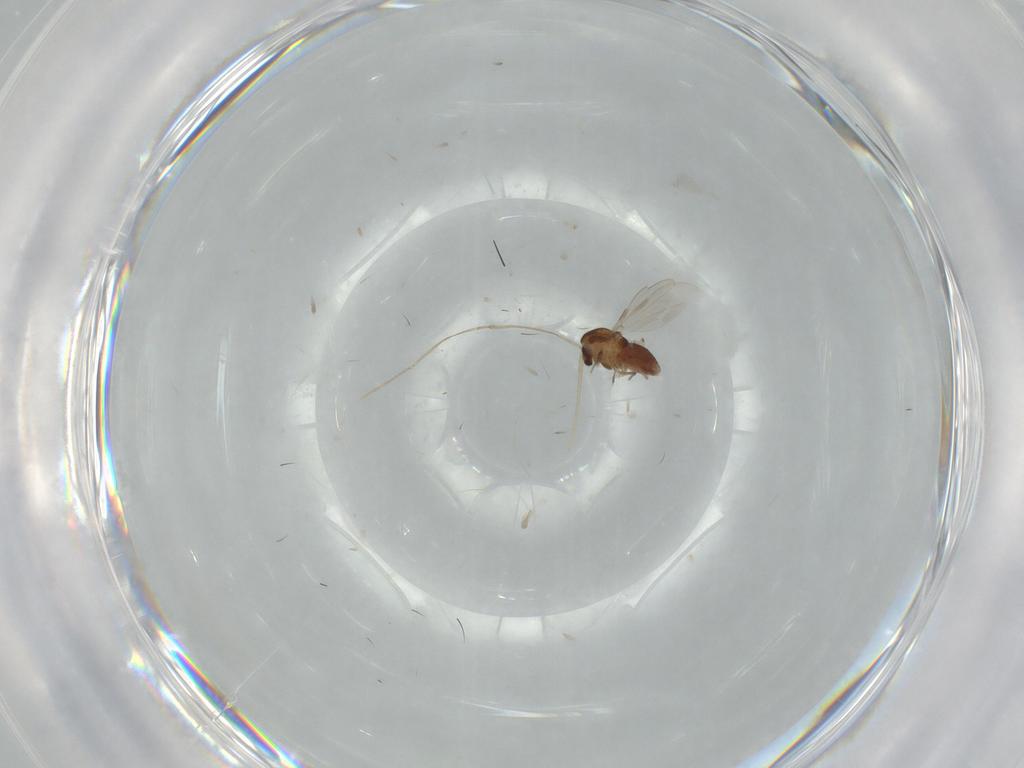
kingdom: Animalia
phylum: Arthropoda
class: Insecta
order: Diptera
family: Chironomidae
